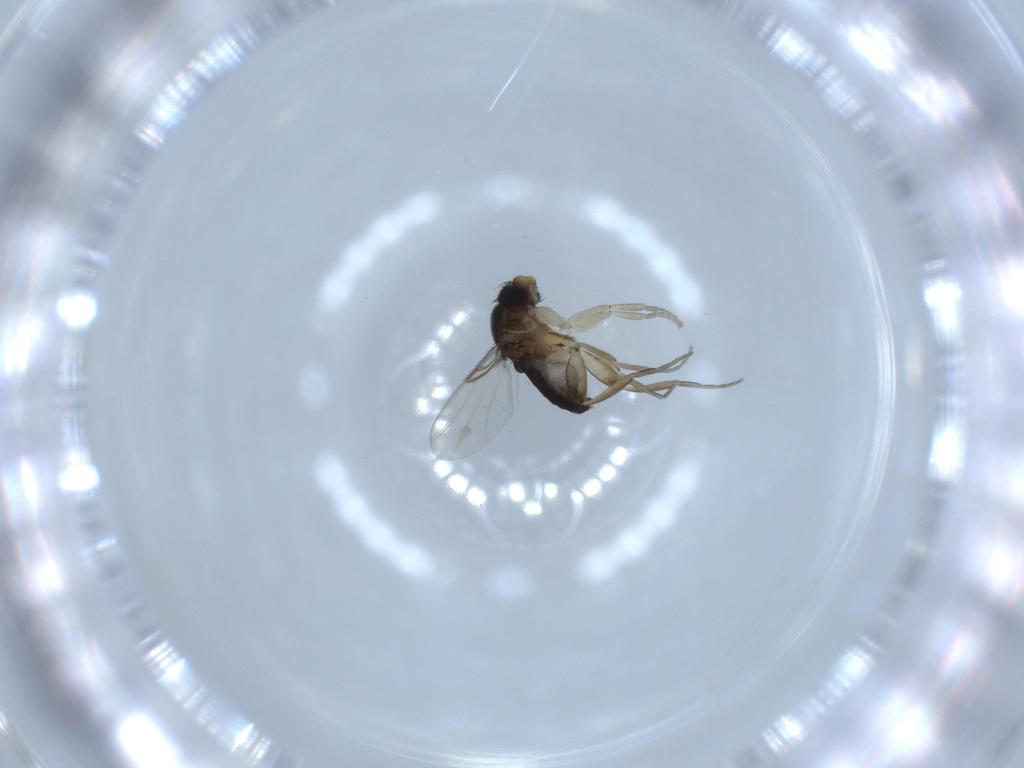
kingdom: Animalia
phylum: Arthropoda
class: Insecta
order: Diptera
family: Phoridae
